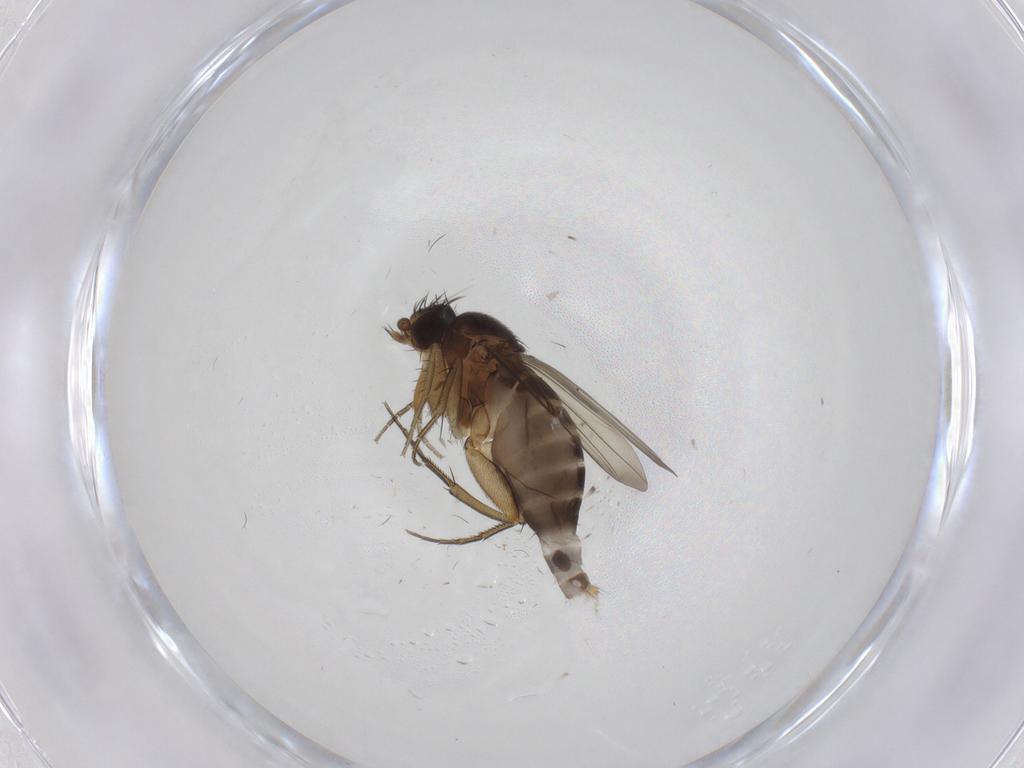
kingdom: Animalia
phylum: Arthropoda
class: Insecta
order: Diptera
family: Phoridae
